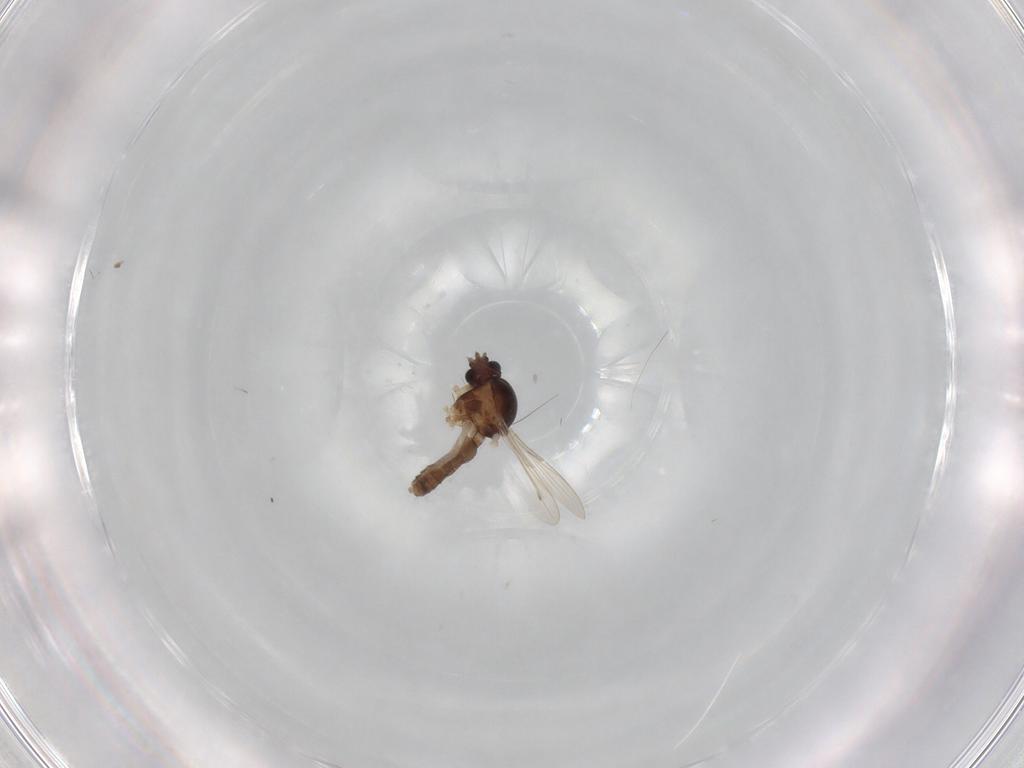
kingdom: Animalia
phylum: Arthropoda
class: Insecta
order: Diptera
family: Ceratopogonidae
